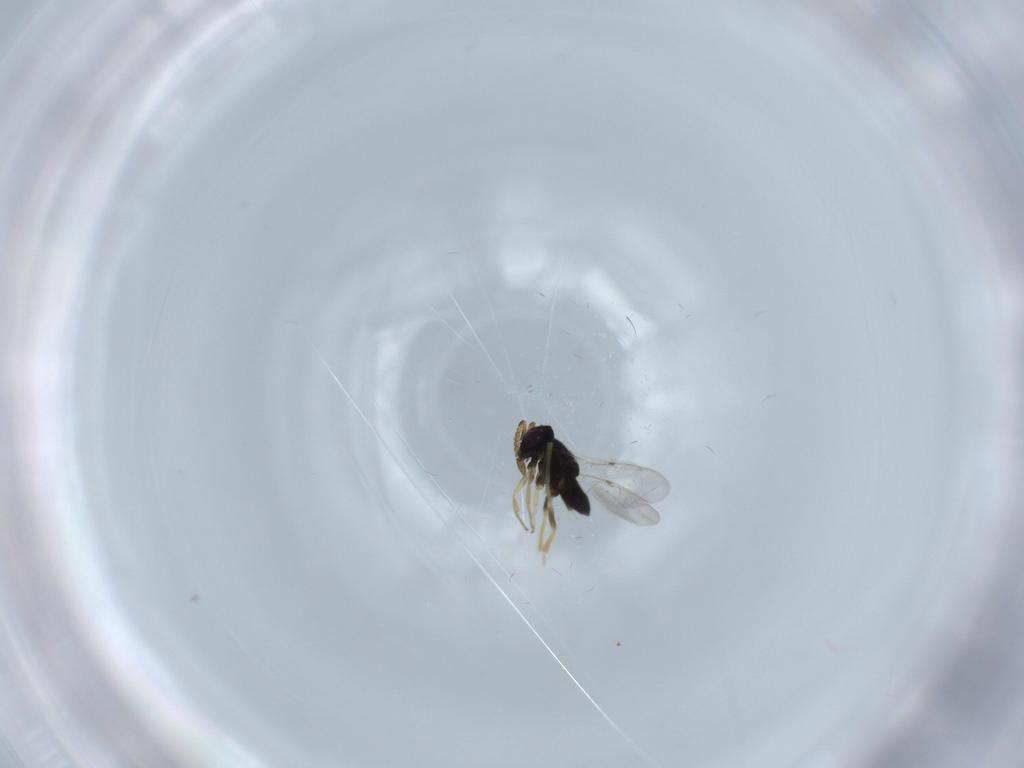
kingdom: Animalia
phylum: Arthropoda
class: Insecta
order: Hymenoptera
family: Encyrtidae
